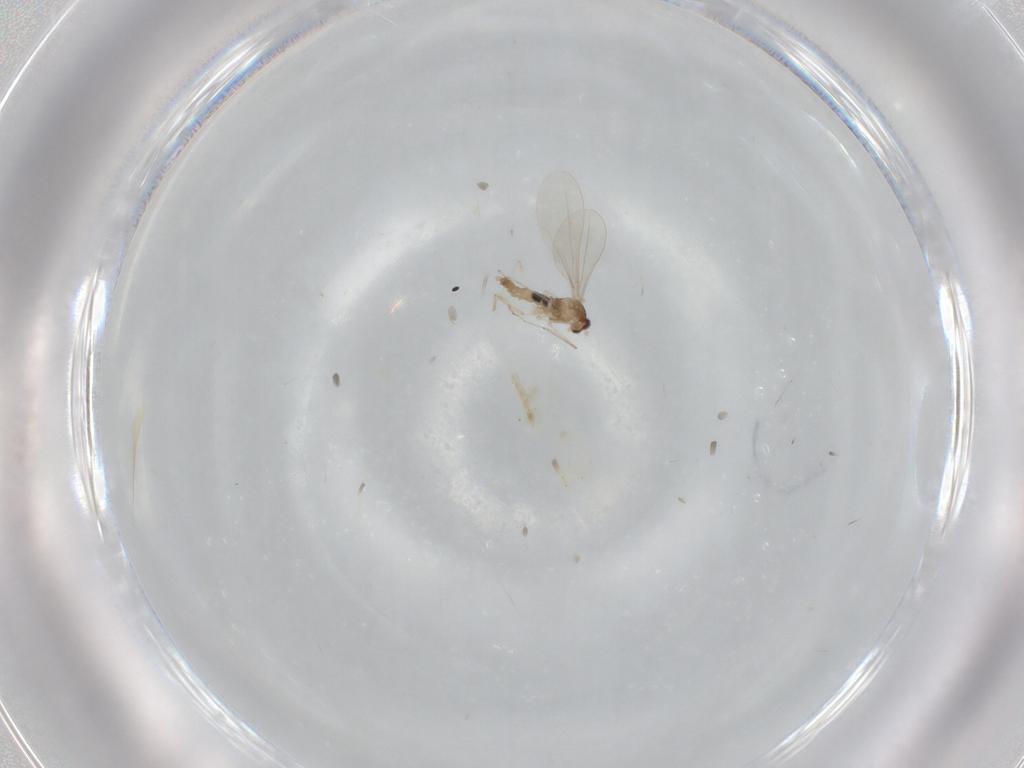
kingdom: Animalia
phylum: Arthropoda
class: Insecta
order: Diptera
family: Cecidomyiidae
